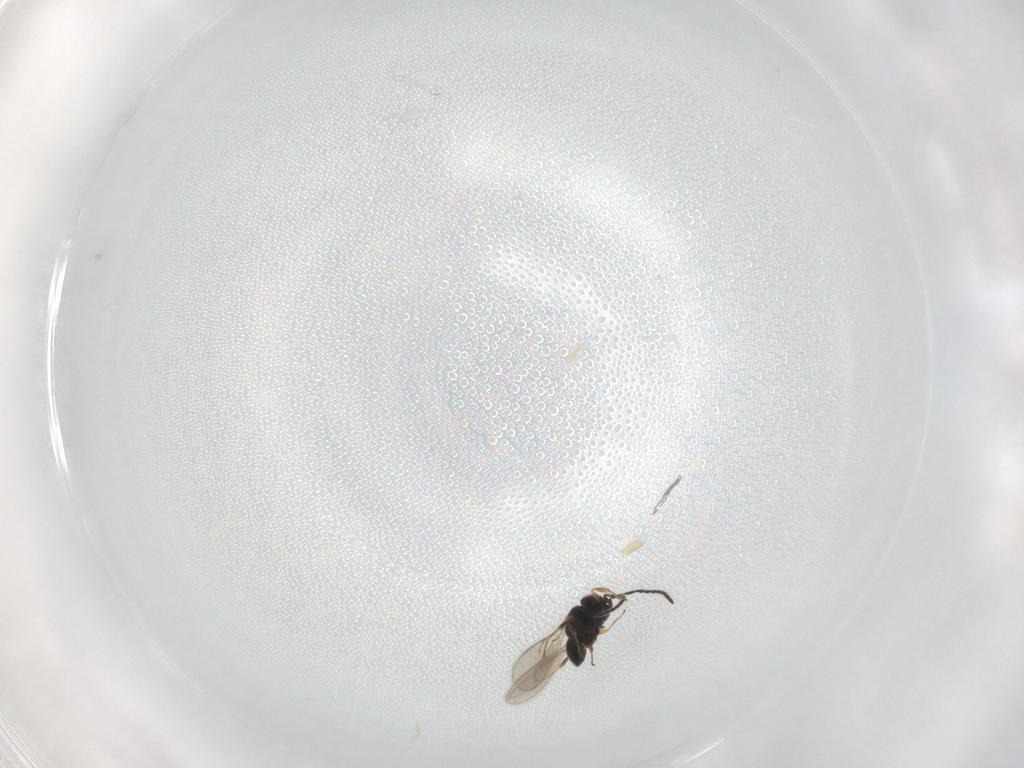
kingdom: Animalia
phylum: Arthropoda
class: Insecta
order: Hymenoptera
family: Scelionidae
